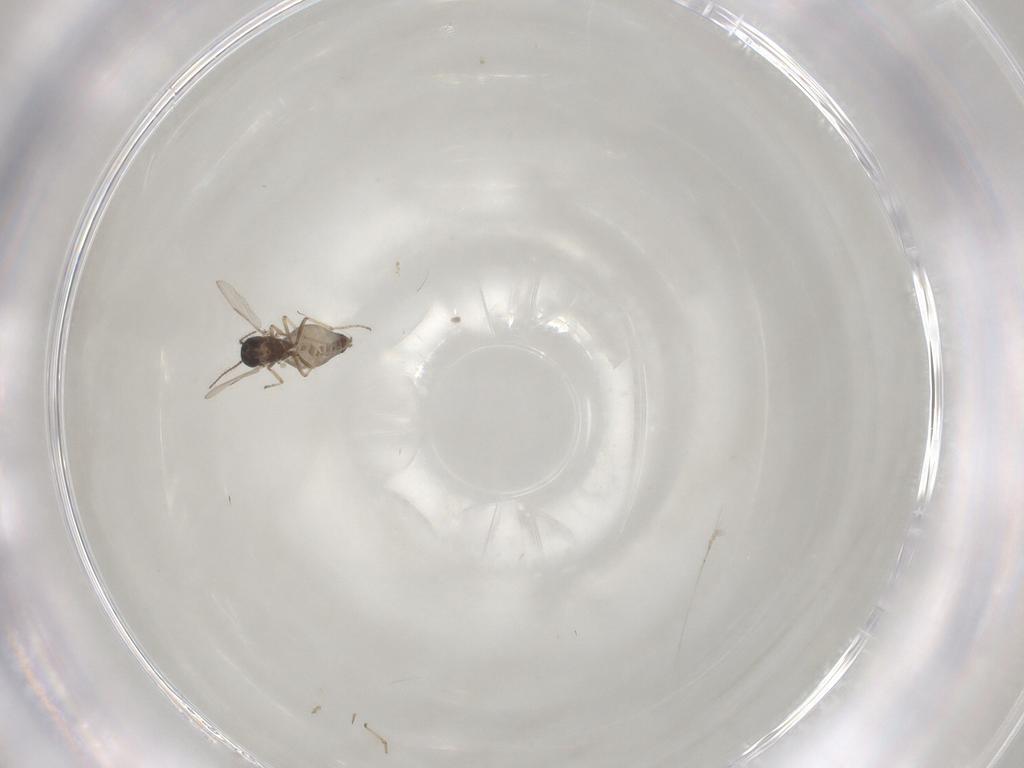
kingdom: Animalia
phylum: Arthropoda
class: Insecta
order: Diptera
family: Ceratopogonidae
